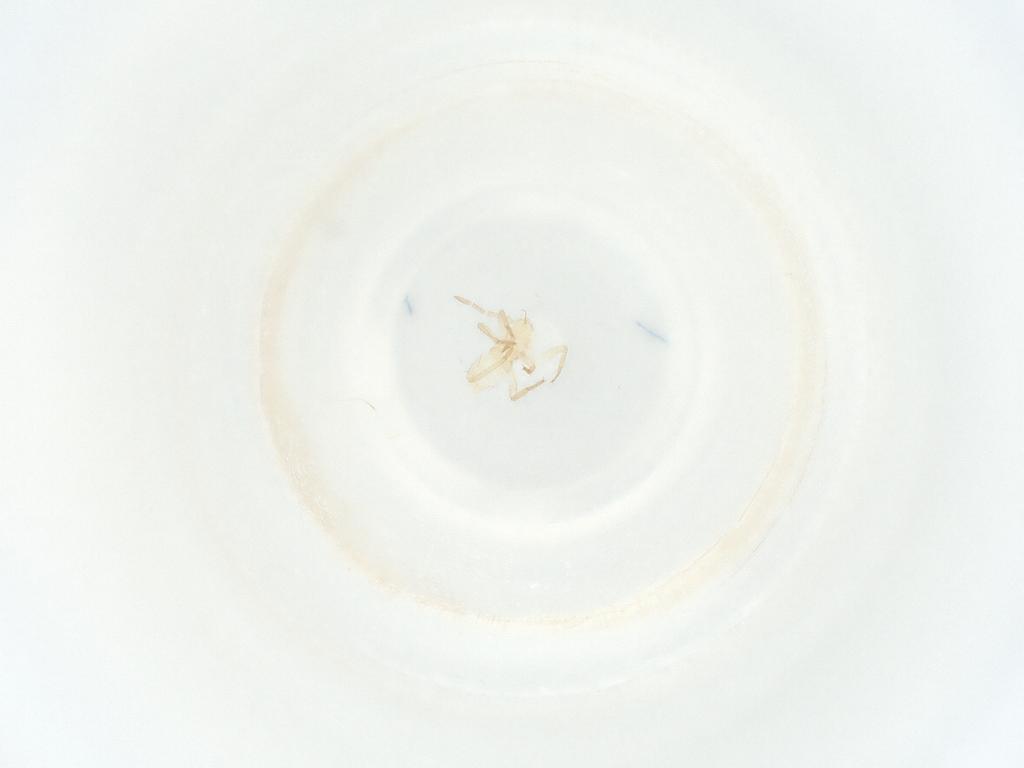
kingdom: Animalia
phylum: Arthropoda
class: Insecta
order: Hemiptera
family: Miridae
